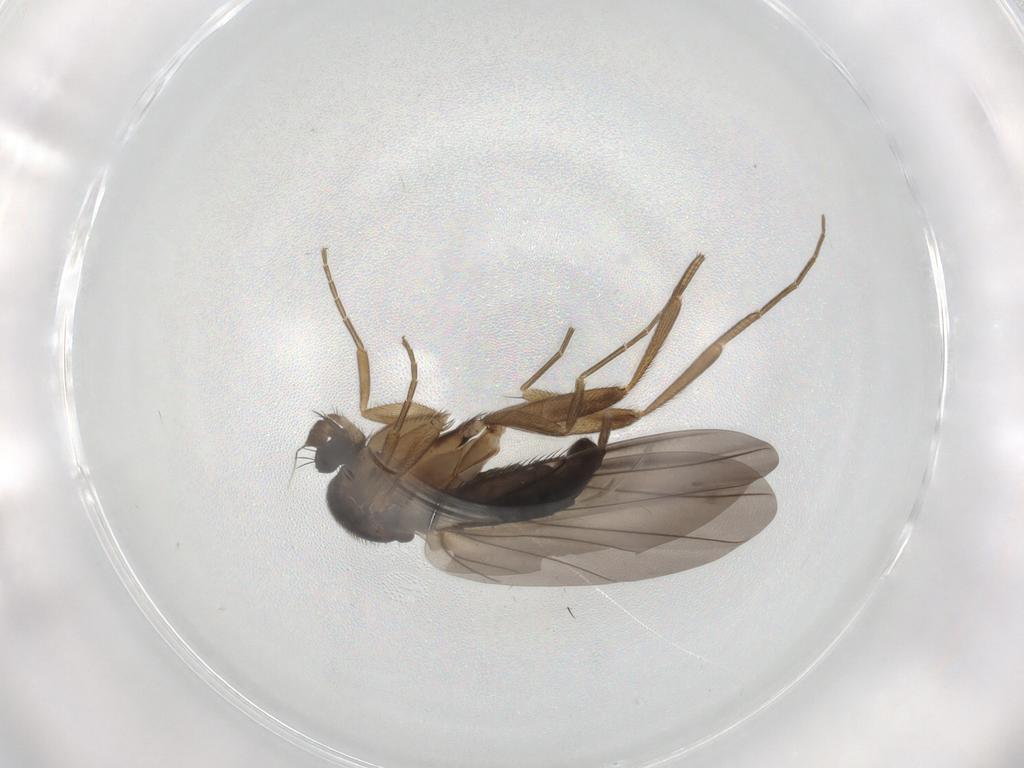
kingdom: Animalia
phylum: Arthropoda
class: Insecta
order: Diptera
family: Phoridae
